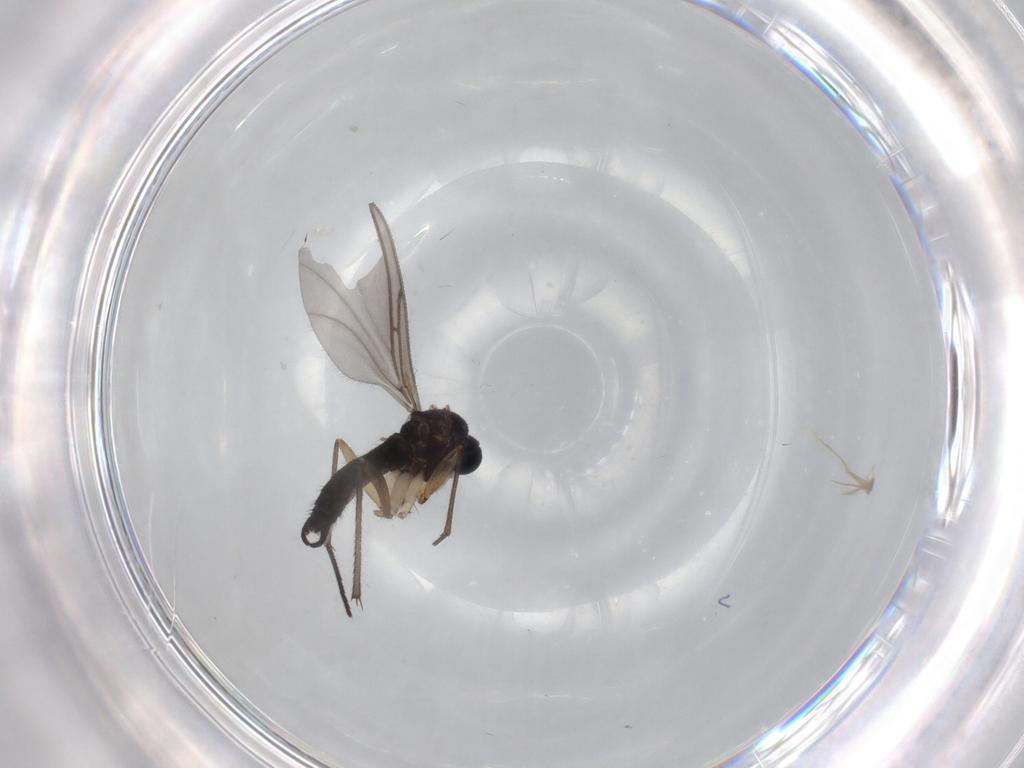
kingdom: Animalia
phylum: Arthropoda
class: Insecta
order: Diptera
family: Sciaridae
